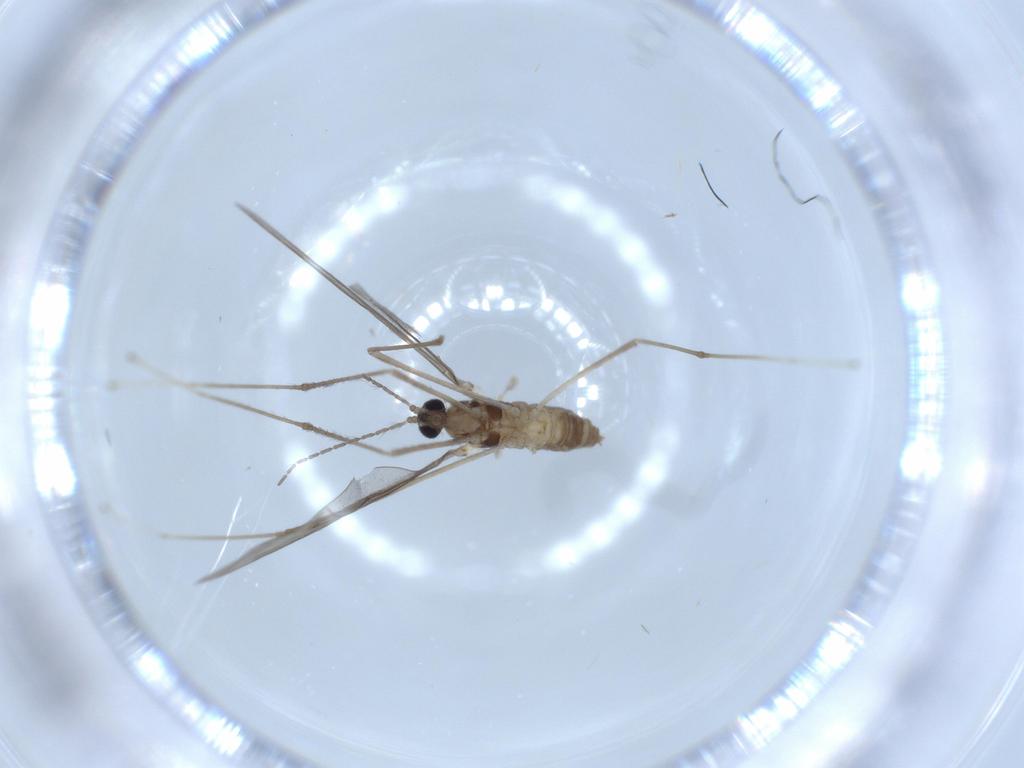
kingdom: Animalia
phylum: Arthropoda
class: Insecta
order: Diptera
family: Cecidomyiidae
